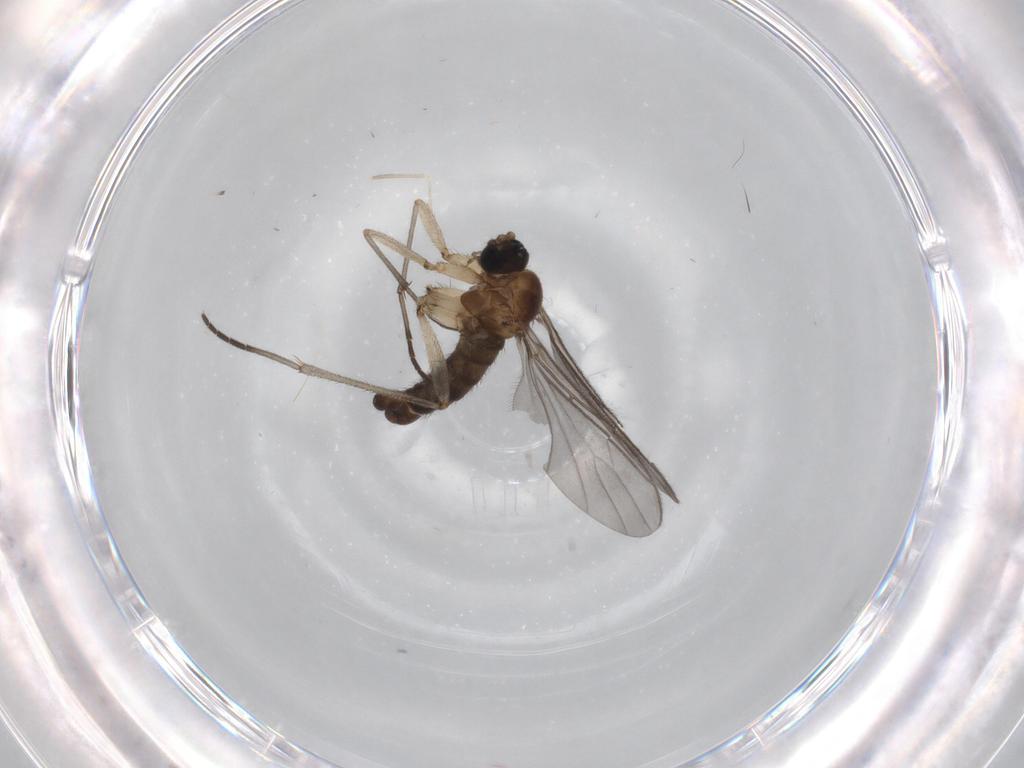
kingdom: Animalia
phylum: Arthropoda
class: Insecta
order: Diptera
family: Sciaridae
